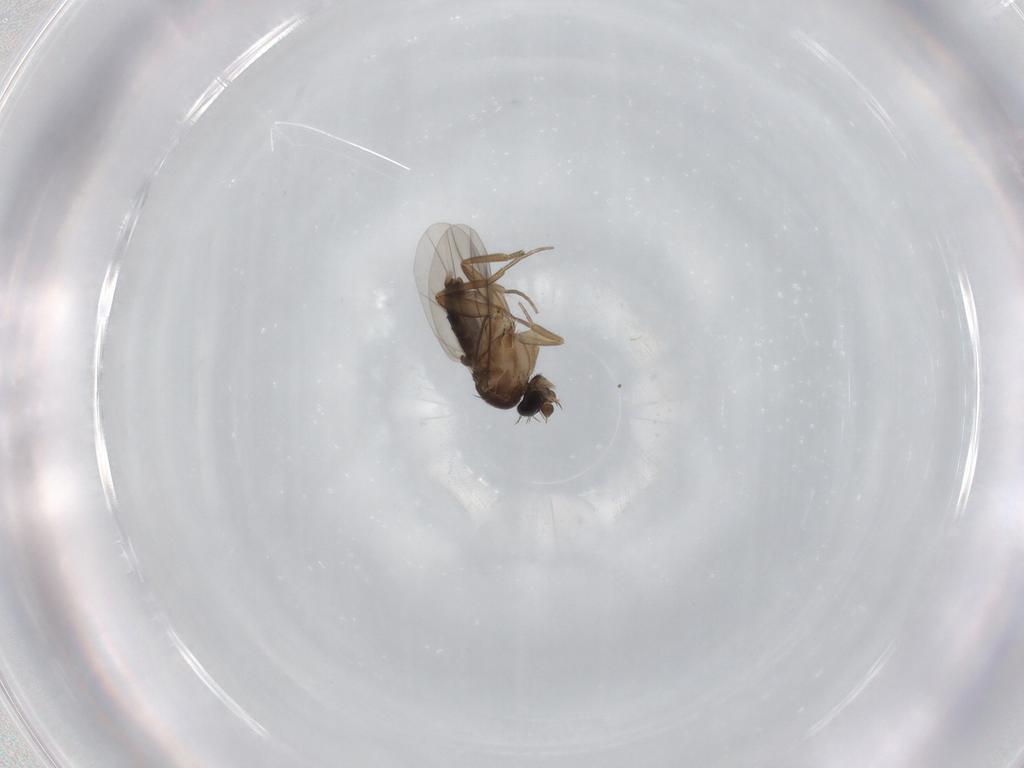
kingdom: Animalia
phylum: Arthropoda
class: Insecta
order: Diptera
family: Phoridae
